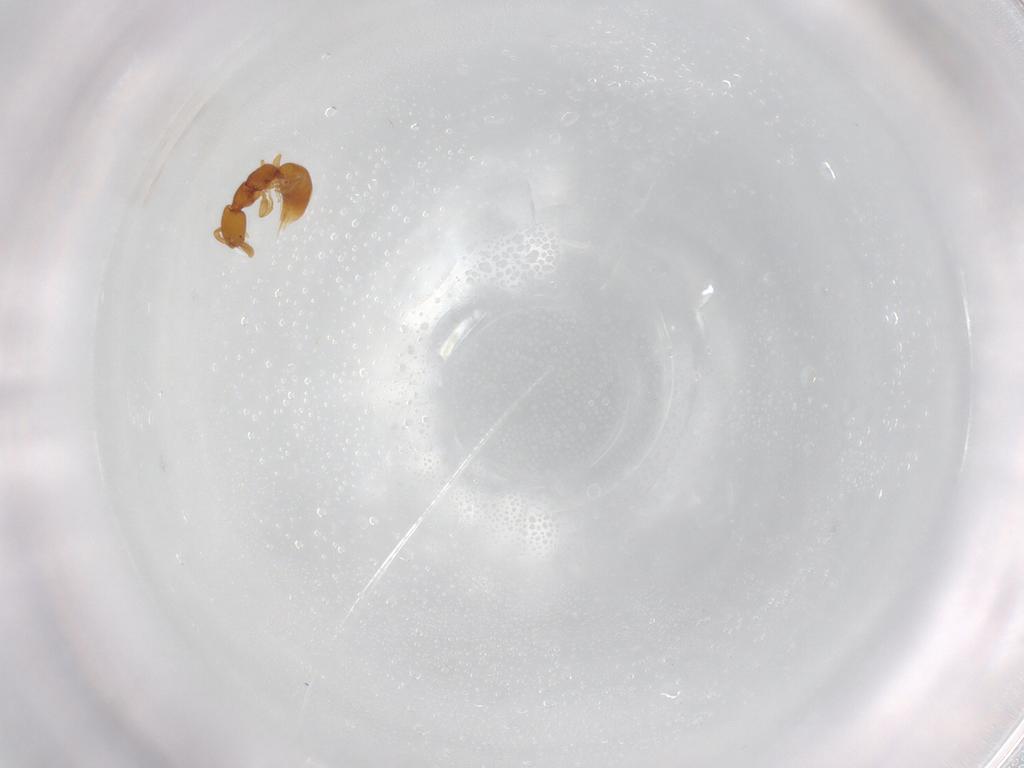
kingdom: Animalia
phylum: Arthropoda
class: Insecta
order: Hymenoptera
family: Bethylidae
